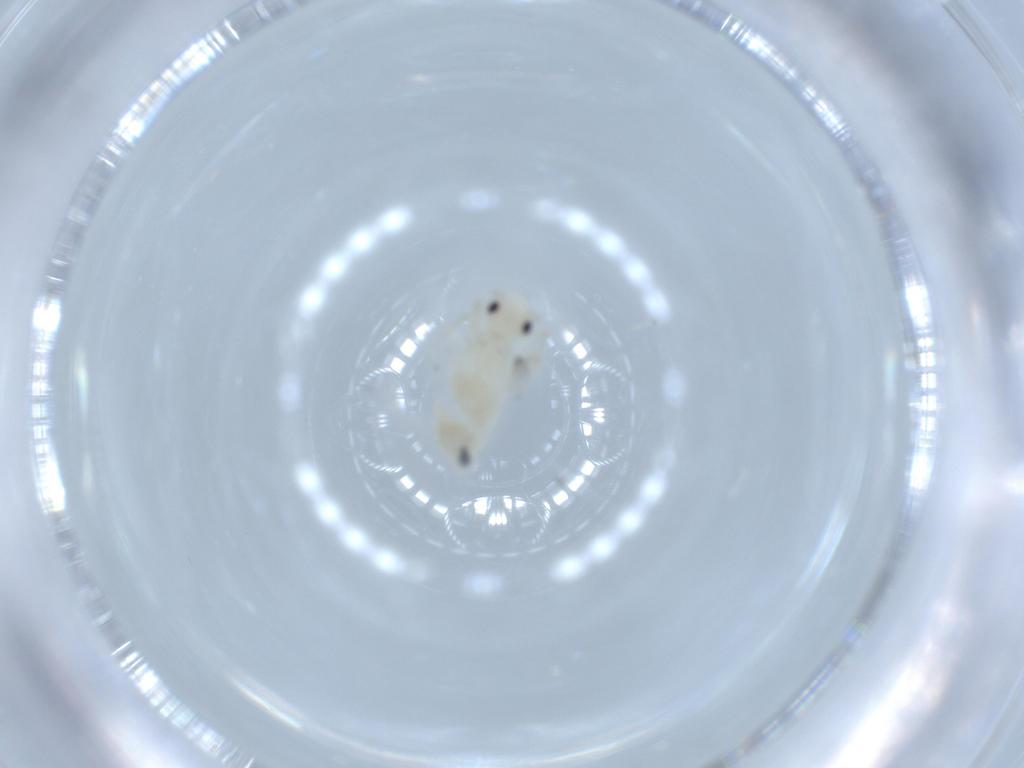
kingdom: Animalia
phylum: Arthropoda
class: Insecta
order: Psocodea
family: Caeciliusidae
